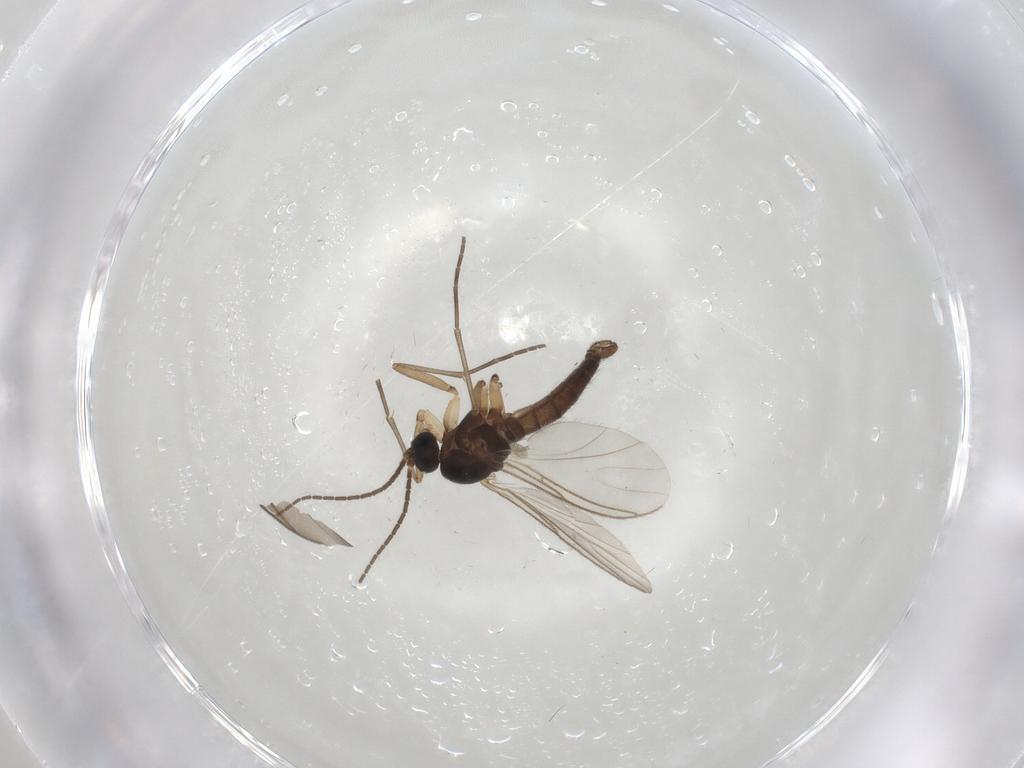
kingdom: Animalia
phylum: Arthropoda
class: Insecta
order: Diptera
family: Sciaridae
